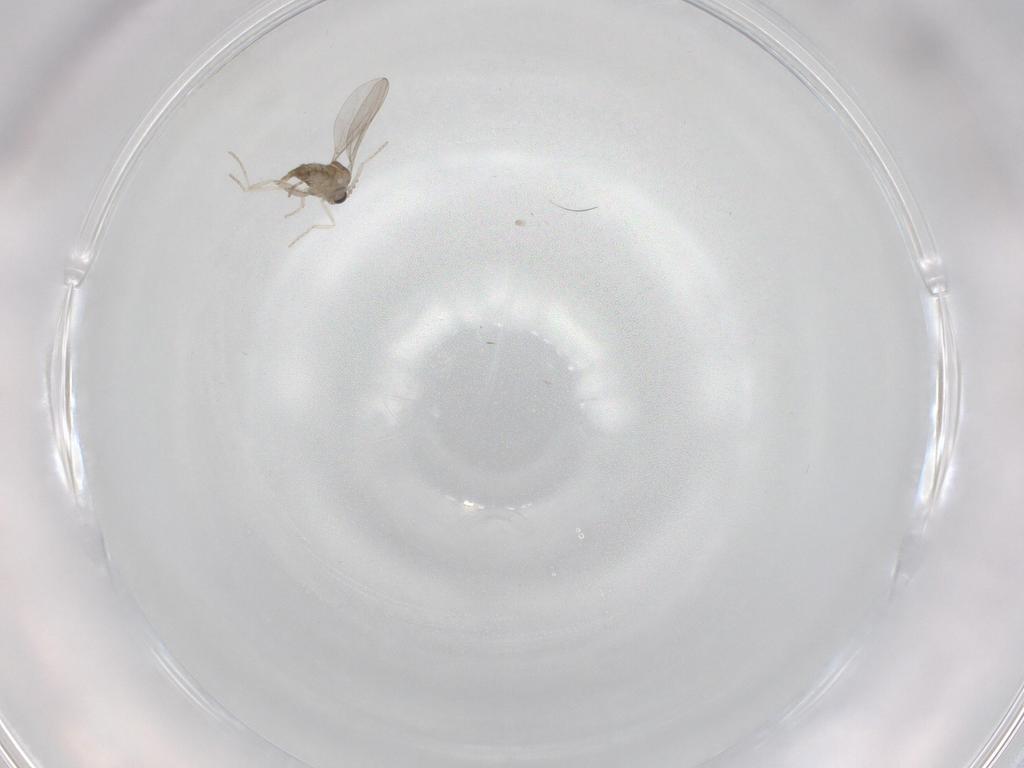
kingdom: Animalia
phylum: Arthropoda
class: Insecta
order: Diptera
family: Cecidomyiidae
